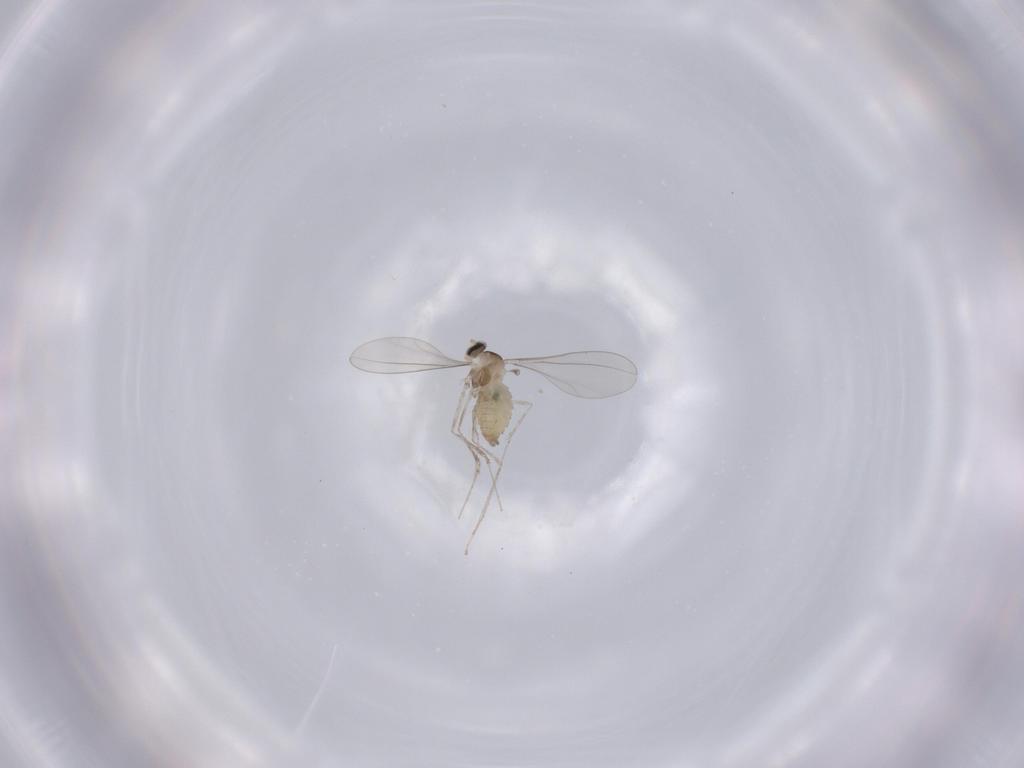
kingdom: Animalia
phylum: Arthropoda
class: Insecta
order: Diptera
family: Cecidomyiidae
